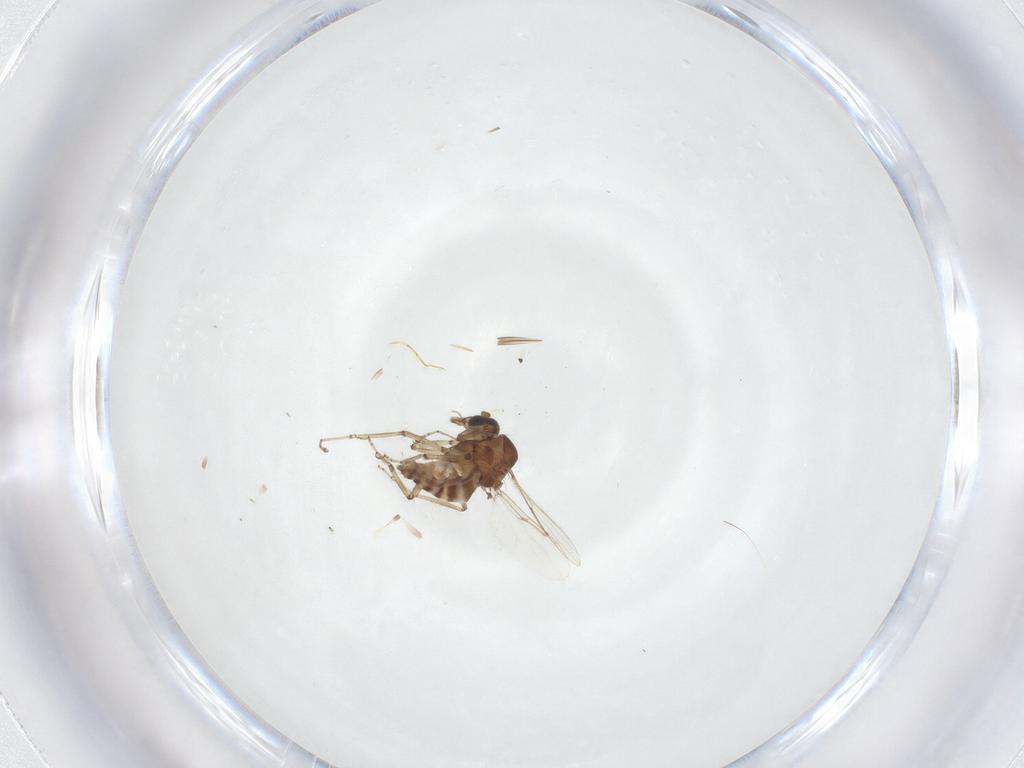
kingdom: Animalia
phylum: Arthropoda
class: Insecta
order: Diptera
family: Ceratopogonidae
